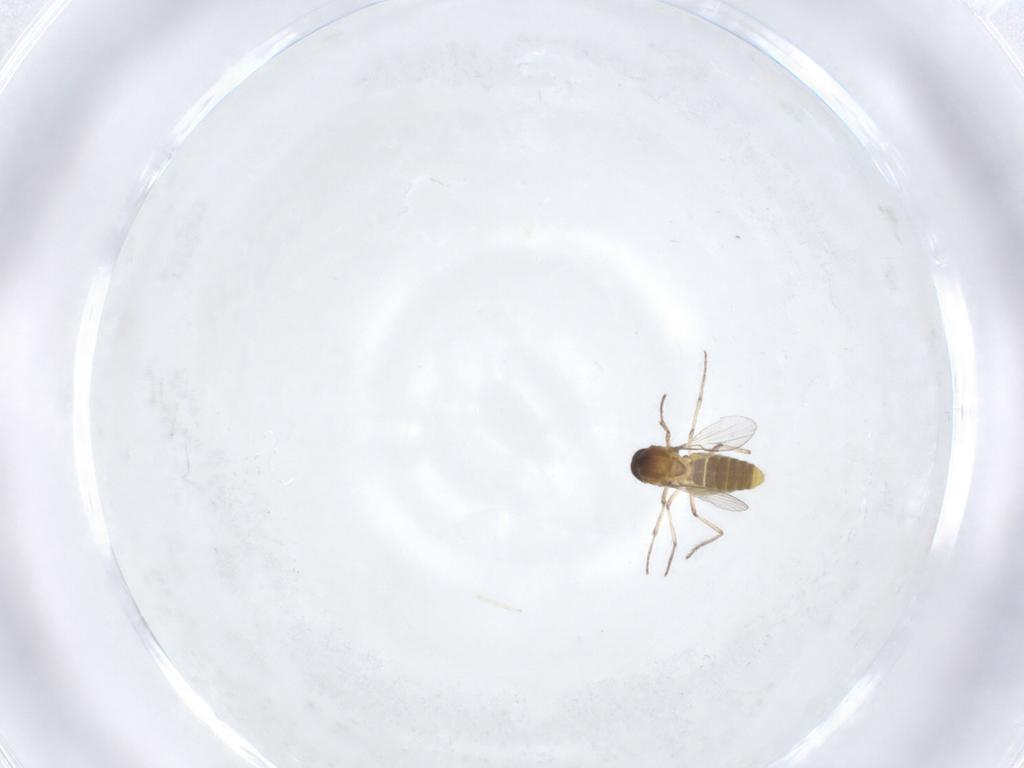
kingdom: Animalia
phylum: Arthropoda
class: Insecta
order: Diptera
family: Ceratopogonidae
